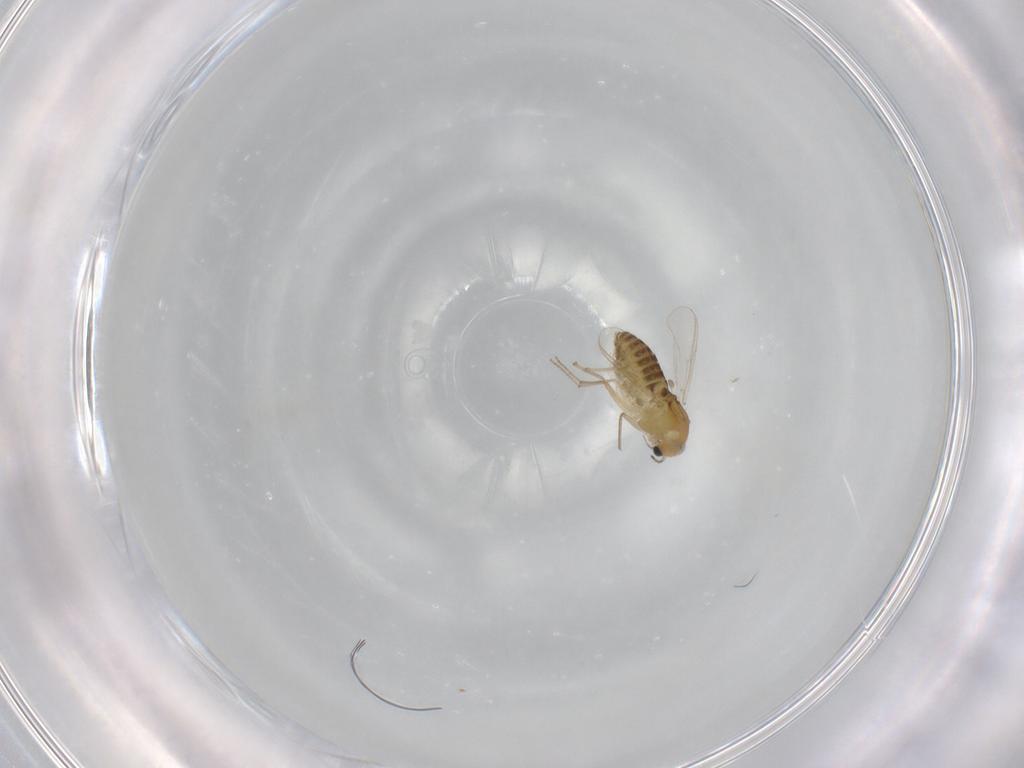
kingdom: Animalia
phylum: Arthropoda
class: Insecta
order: Diptera
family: Chironomidae
